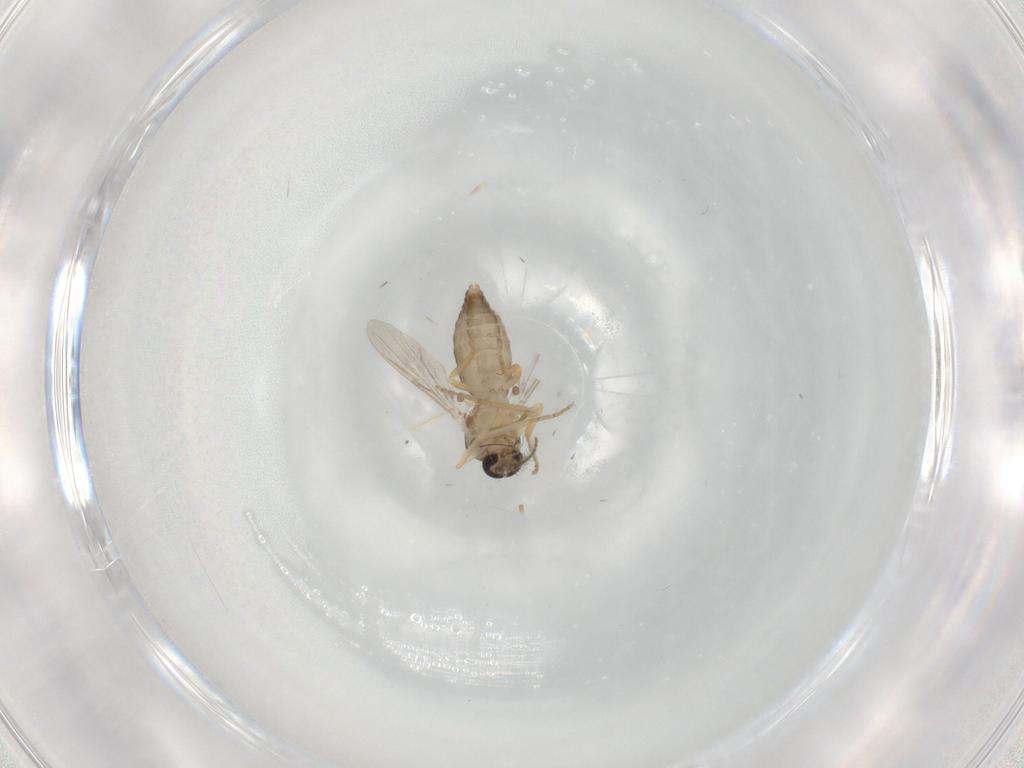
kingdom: Animalia
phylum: Arthropoda
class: Insecta
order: Diptera
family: Ceratopogonidae
